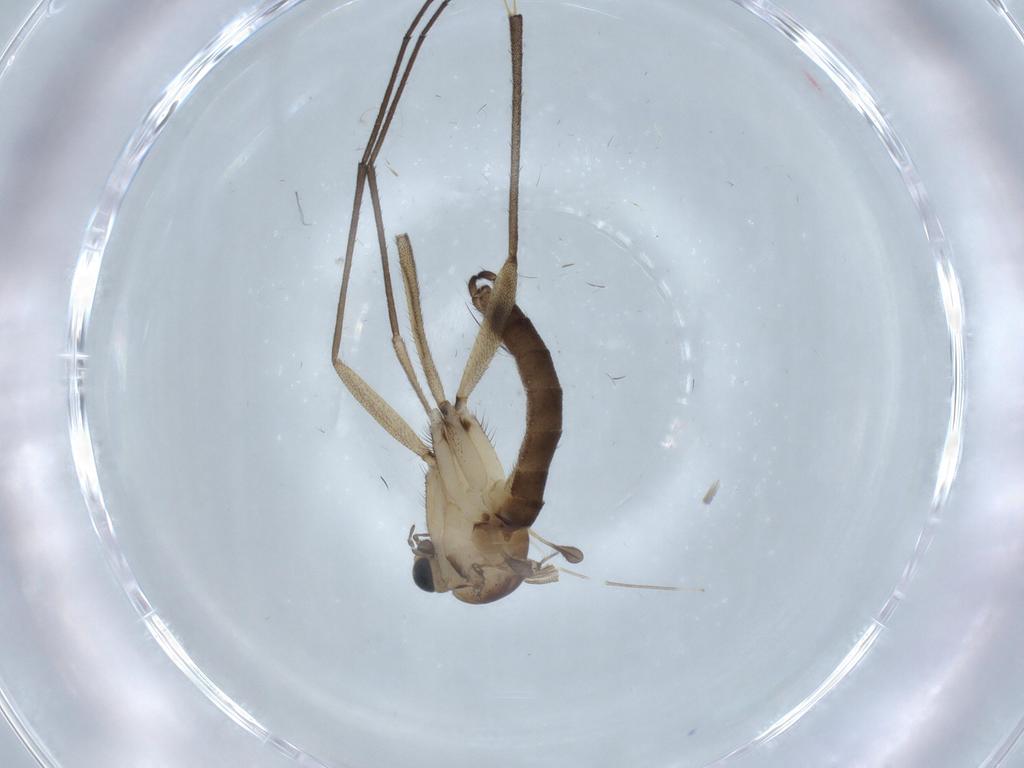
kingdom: Animalia
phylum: Arthropoda
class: Insecta
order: Diptera
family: Sciaridae
